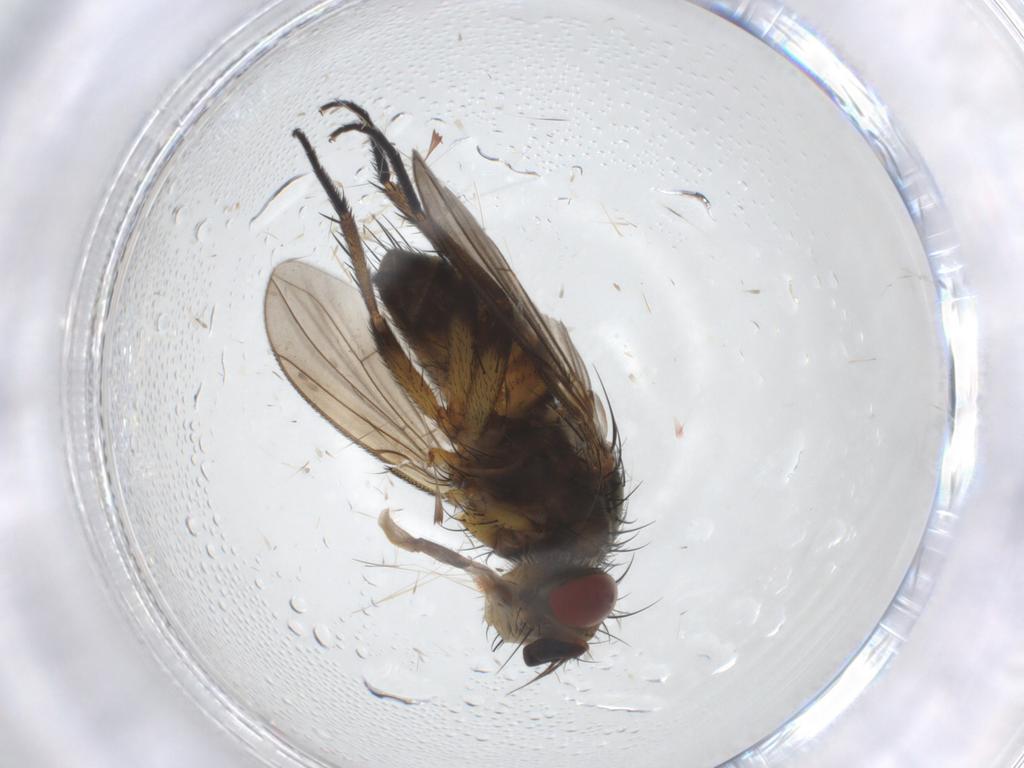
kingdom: Animalia
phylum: Arthropoda
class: Insecta
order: Diptera
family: Tachinidae
